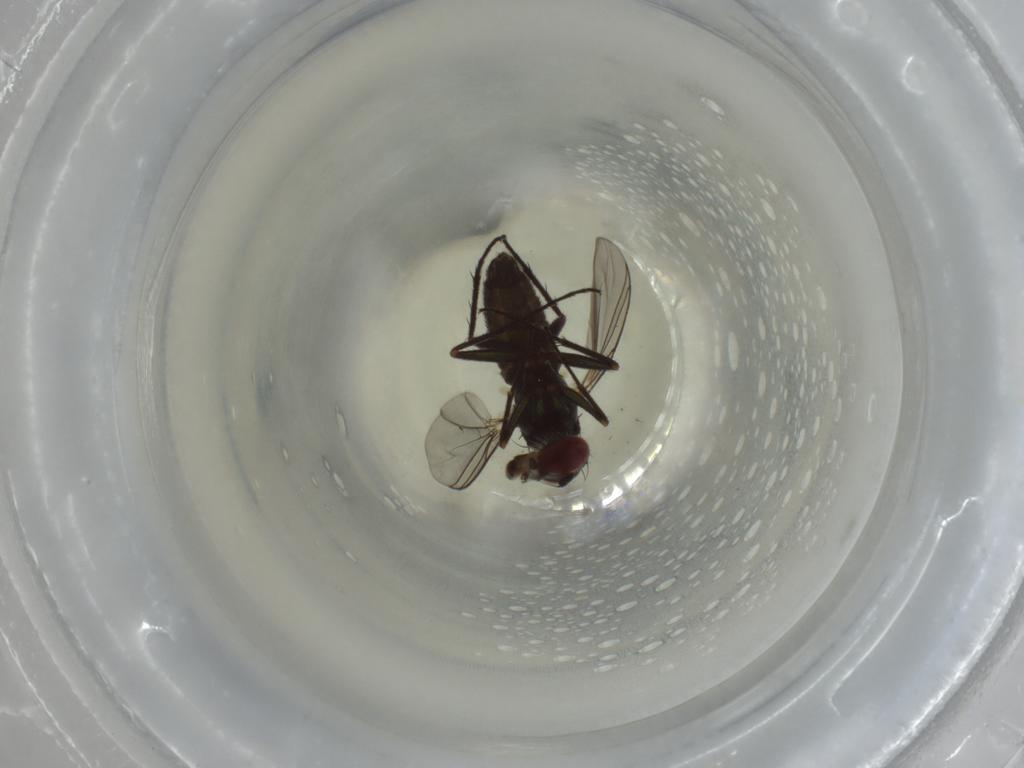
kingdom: Animalia
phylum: Arthropoda
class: Insecta
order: Diptera
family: Dolichopodidae
